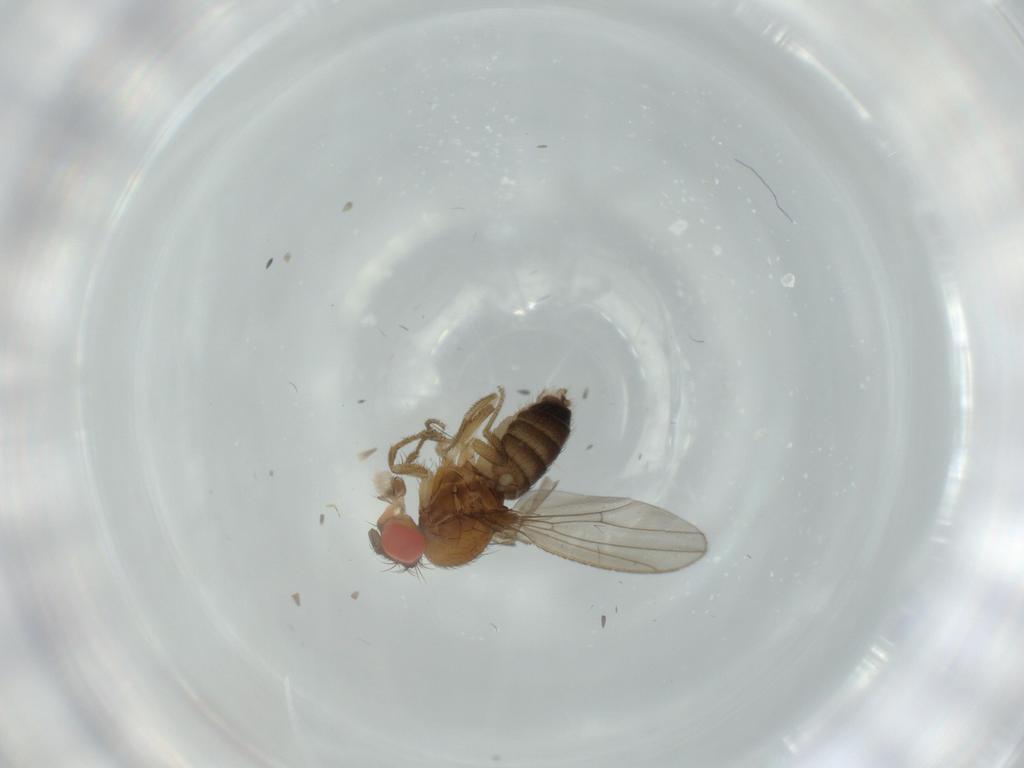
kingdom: Animalia
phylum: Arthropoda
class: Insecta
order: Diptera
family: Drosophilidae
